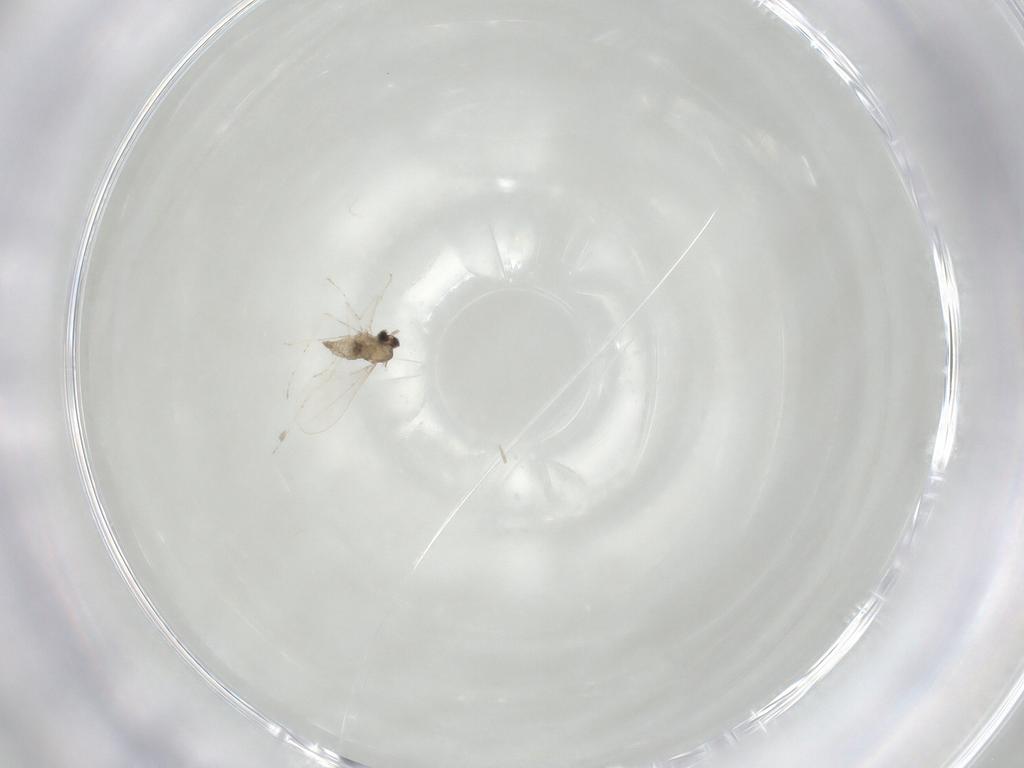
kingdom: Animalia
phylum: Arthropoda
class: Insecta
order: Diptera
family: Cecidomyiidae
